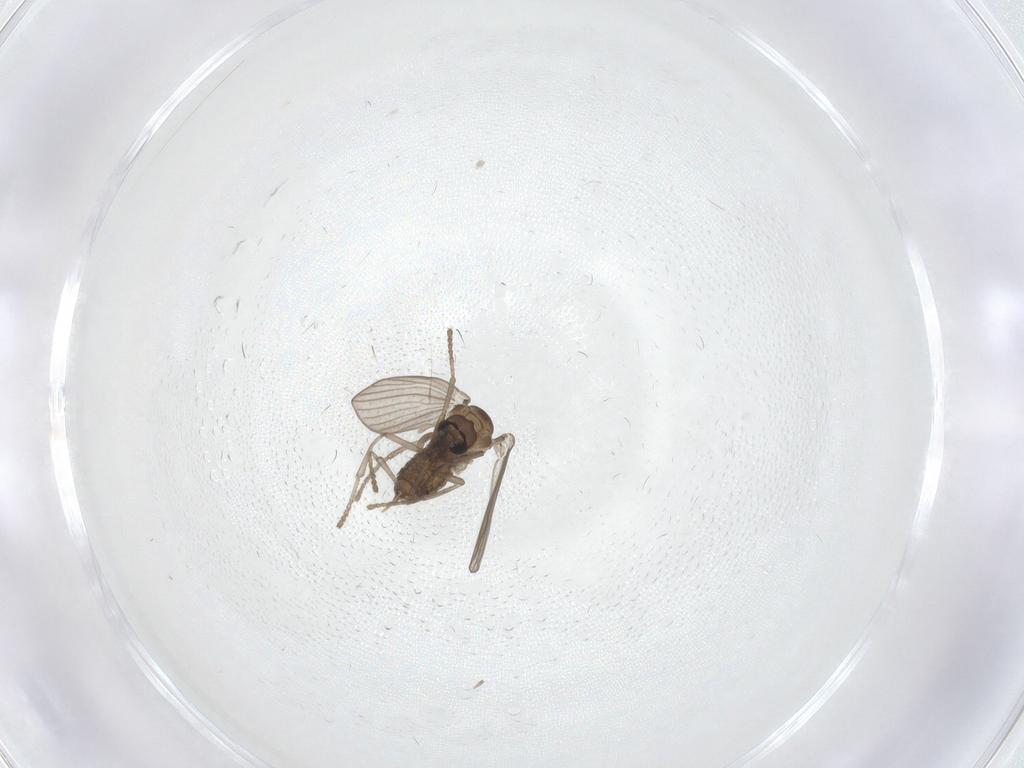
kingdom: Animalia
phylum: Arthropoda
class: Insecta
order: Diptera
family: Psychodidae
